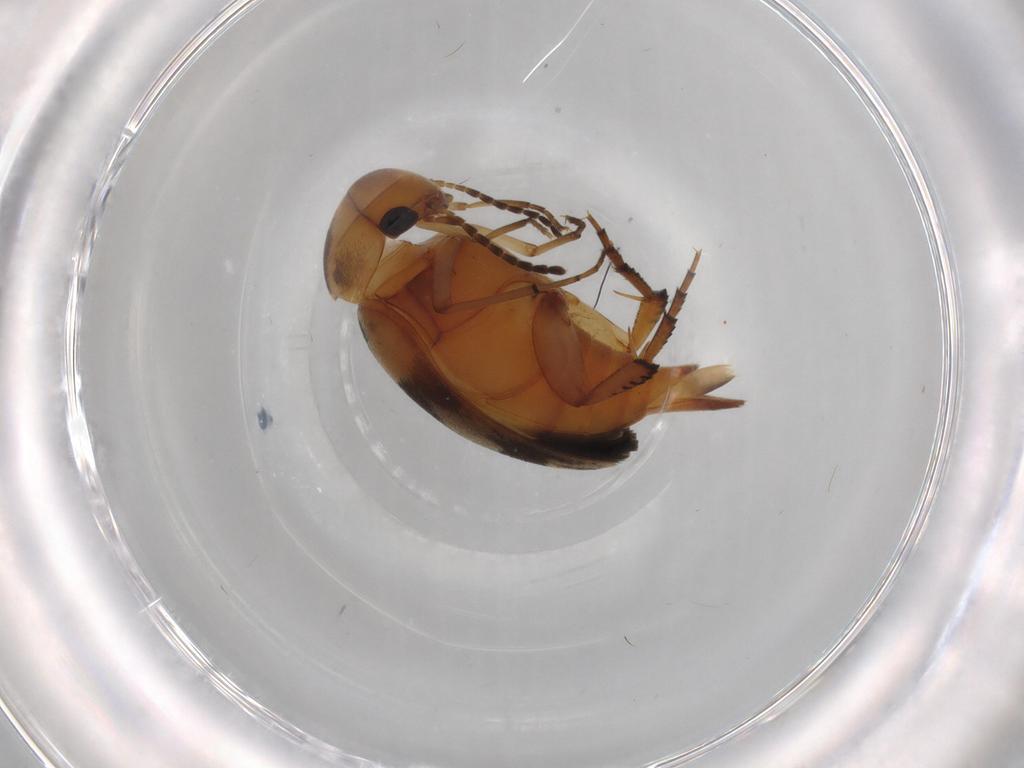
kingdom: Animalia
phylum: Arthropoda
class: Insecta
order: Coleoptera
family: Mordellidae
